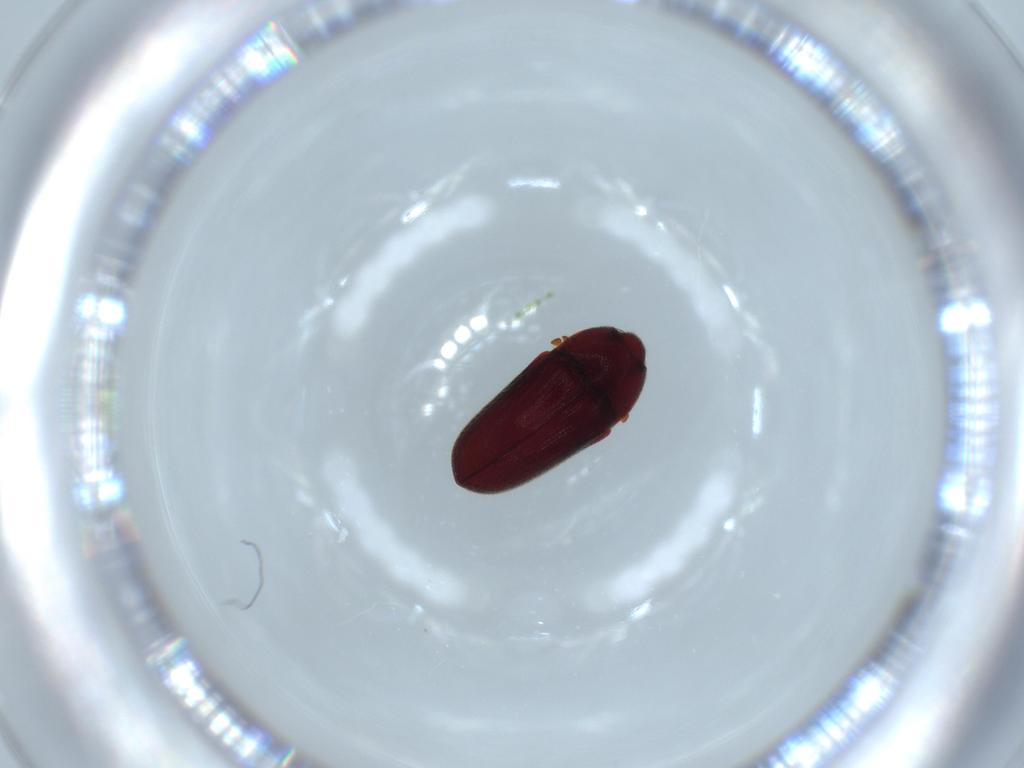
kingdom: Animalia
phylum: Arthropoda
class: Insecta
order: Coleoptera
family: Throscidae
